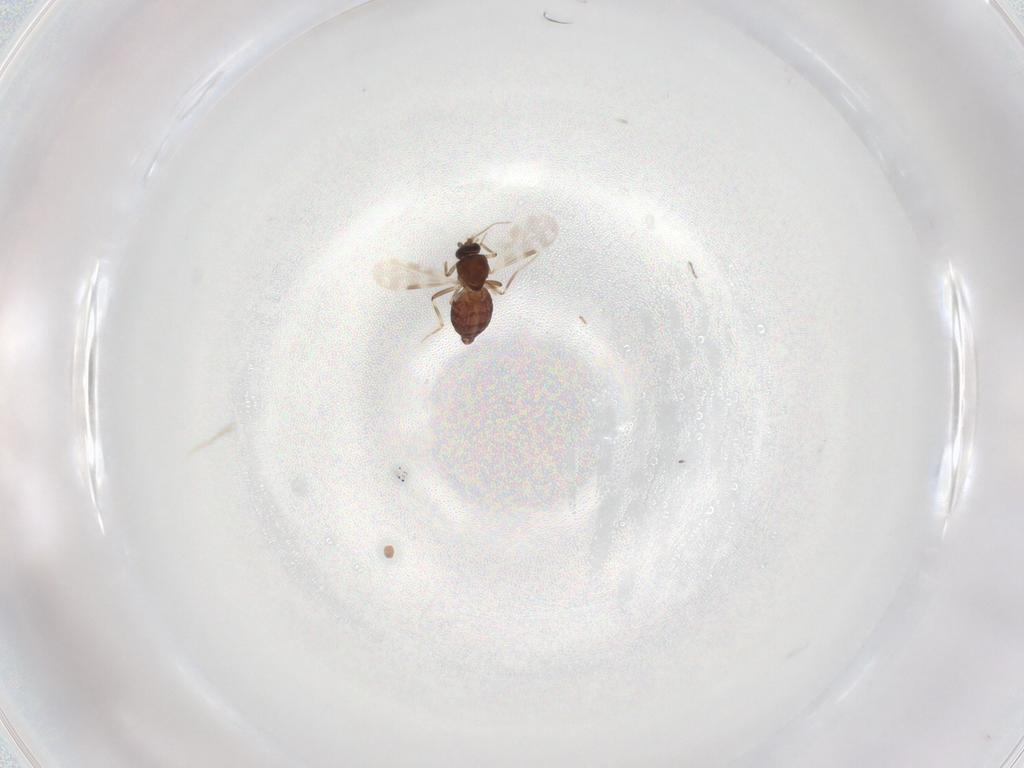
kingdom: Animalia
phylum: Arthropoda
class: Insecta
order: Diptera
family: Ceratopogonidae
